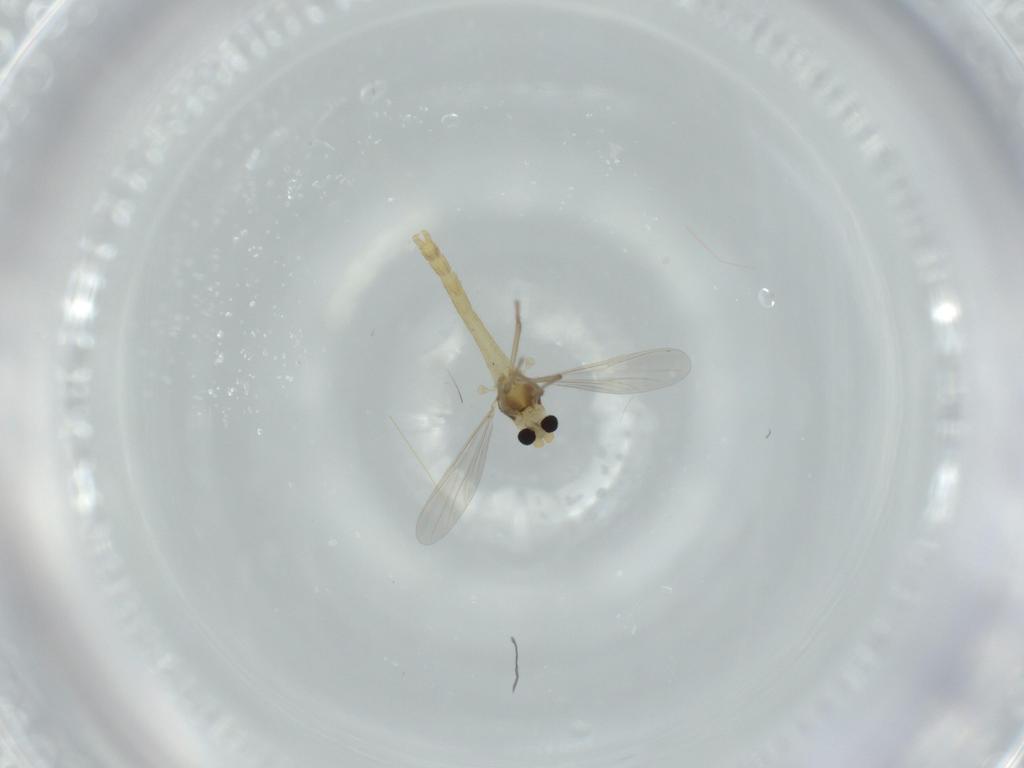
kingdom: Animalia
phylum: Arthropoda
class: Insecta
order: Diptera
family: Chironomidae
